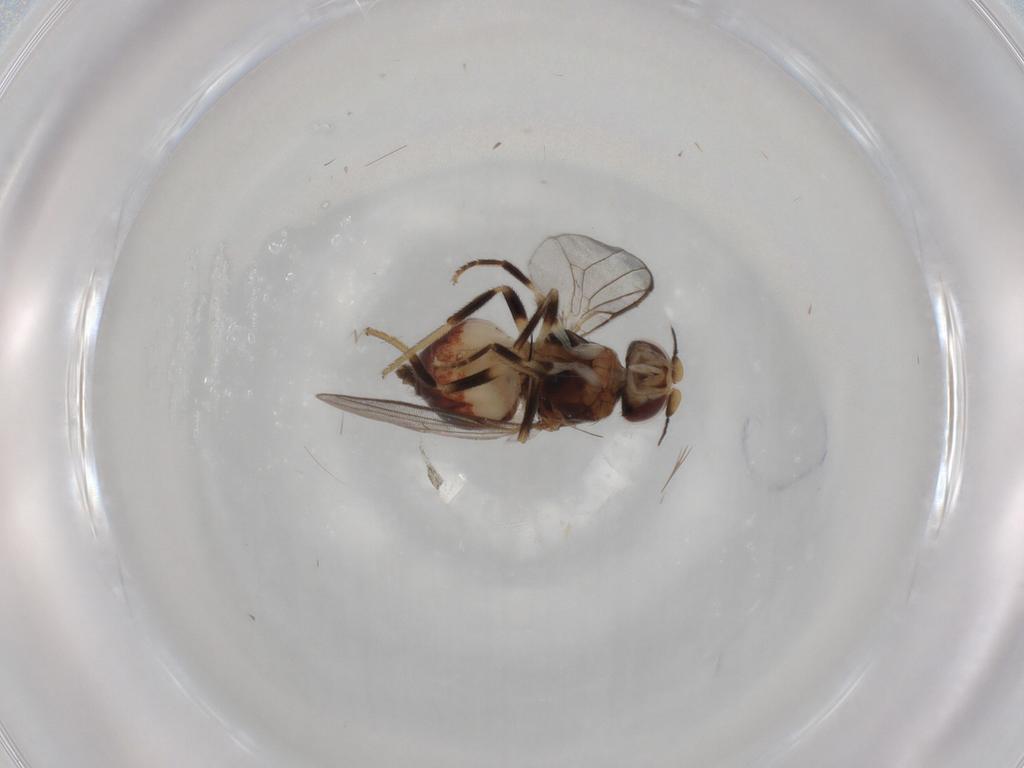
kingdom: Animalia
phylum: Arthropoda
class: Insecta
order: Diptera
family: Chloropidae
